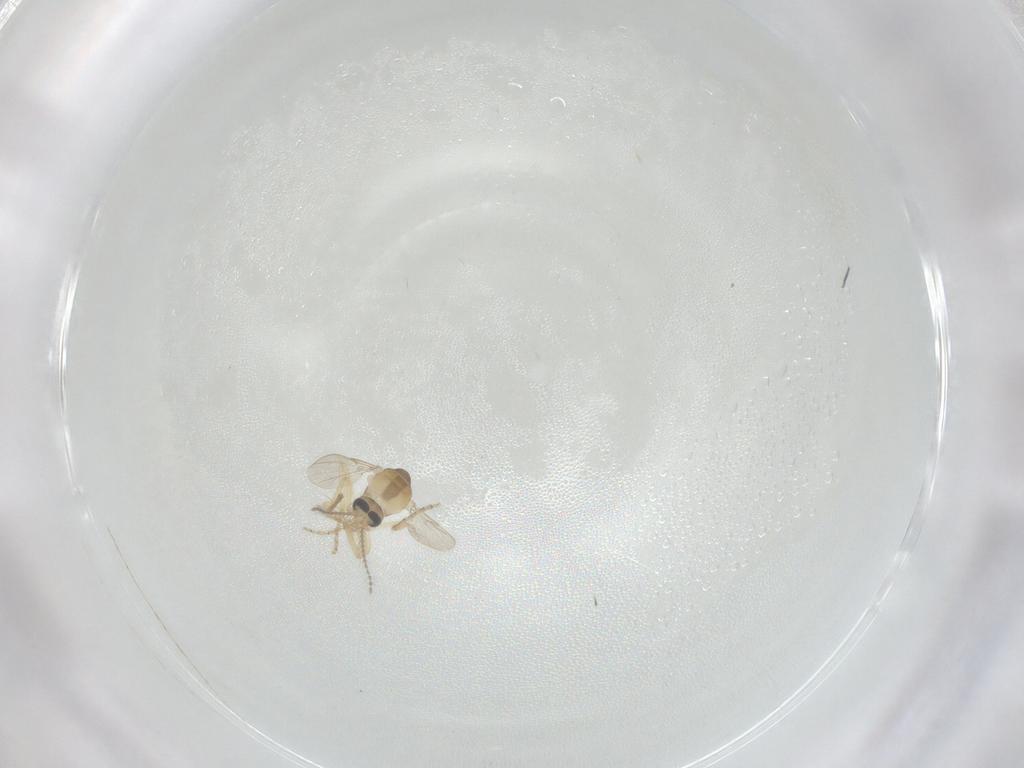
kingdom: Animalia
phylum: Arthropoda
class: Insecta
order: Diptera
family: Ceratopogonidae
